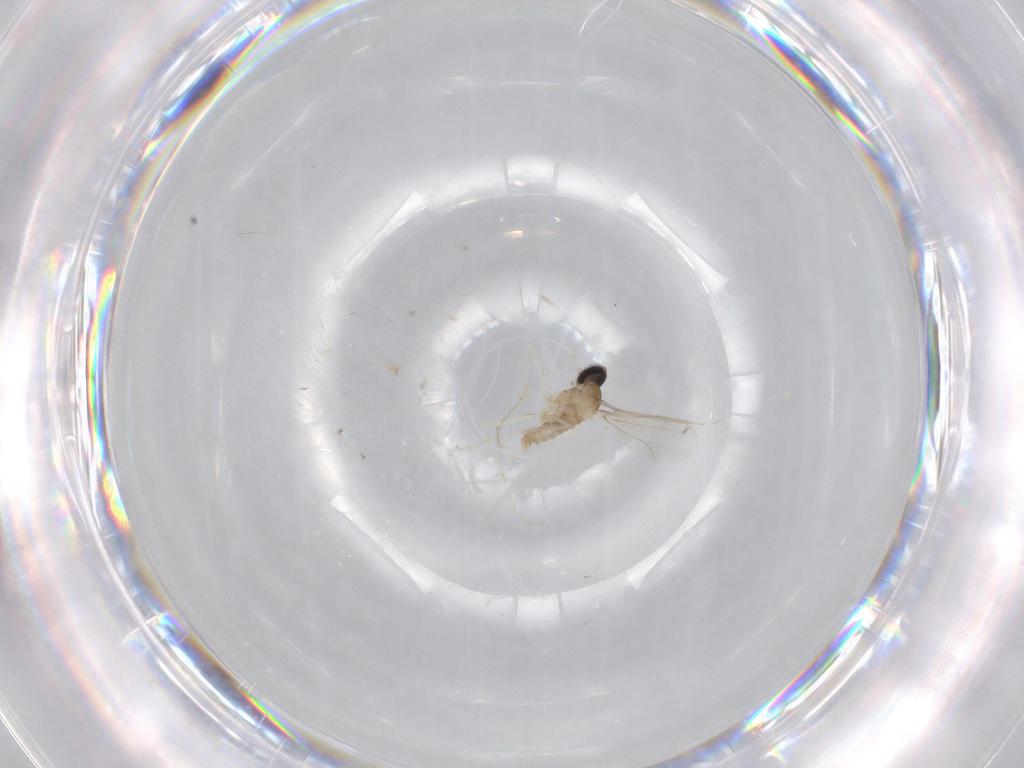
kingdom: Animalia
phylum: Arthropoda
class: Insecta
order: Diptera
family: Cecidomyiidae
